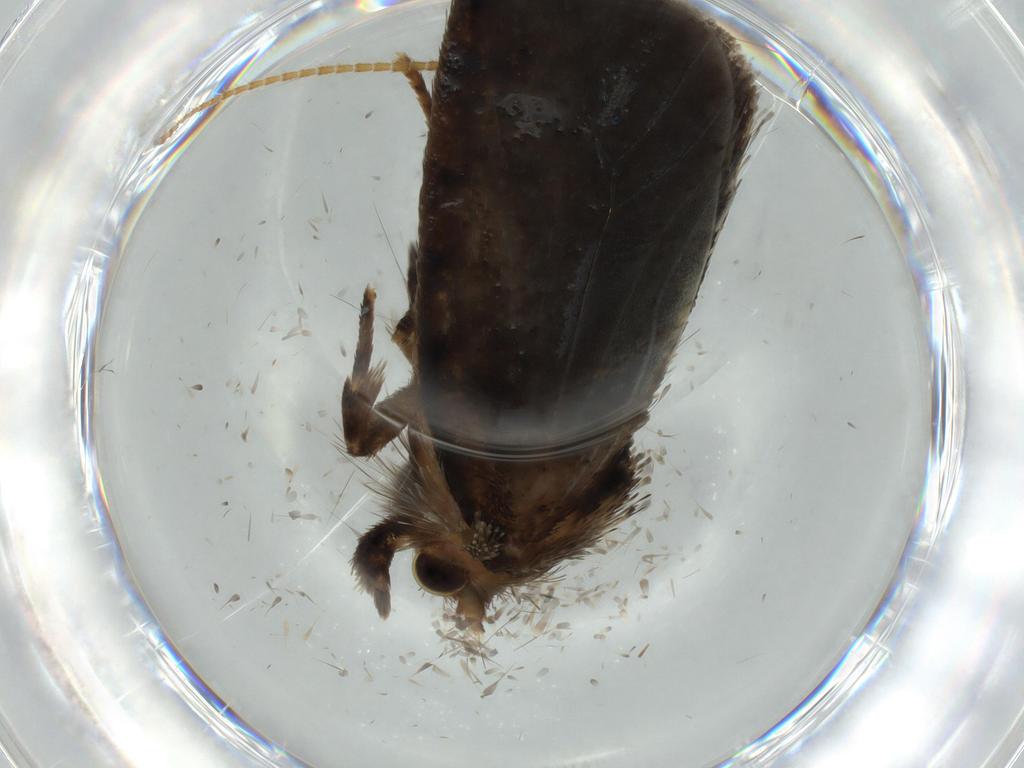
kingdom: Animalia
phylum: Arthropoda
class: Insecta
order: Lepidoptera
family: Tineidae
